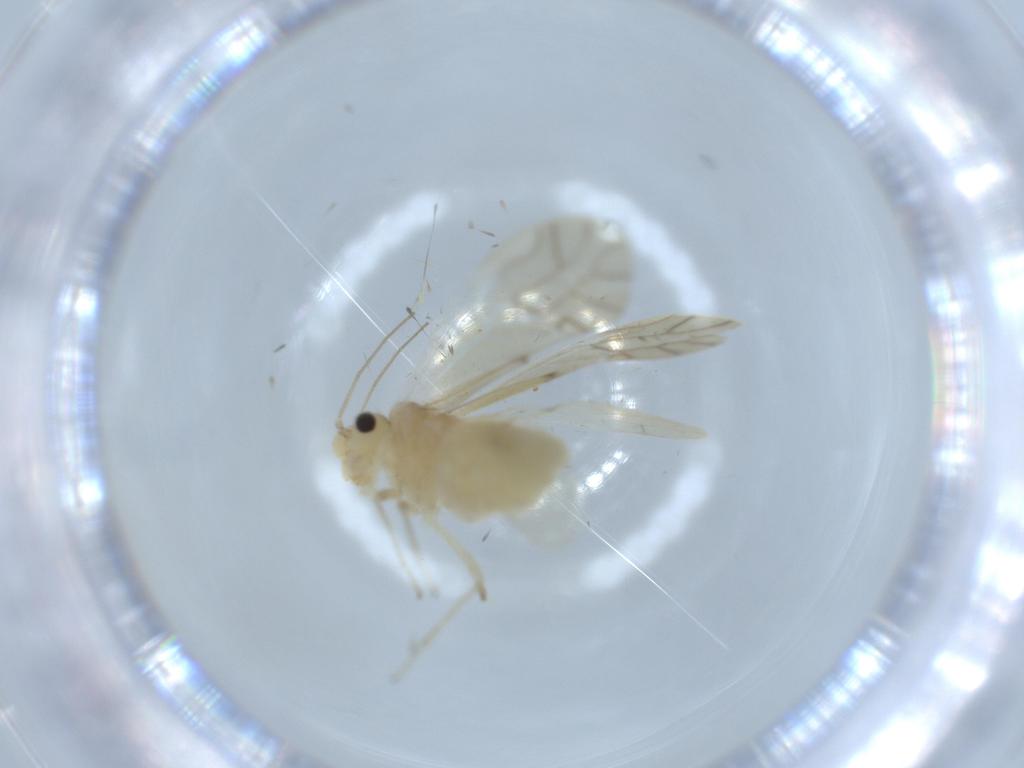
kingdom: Animalia
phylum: Arthropoda
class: Insecta
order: Psocodea
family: Caeciliusidae
